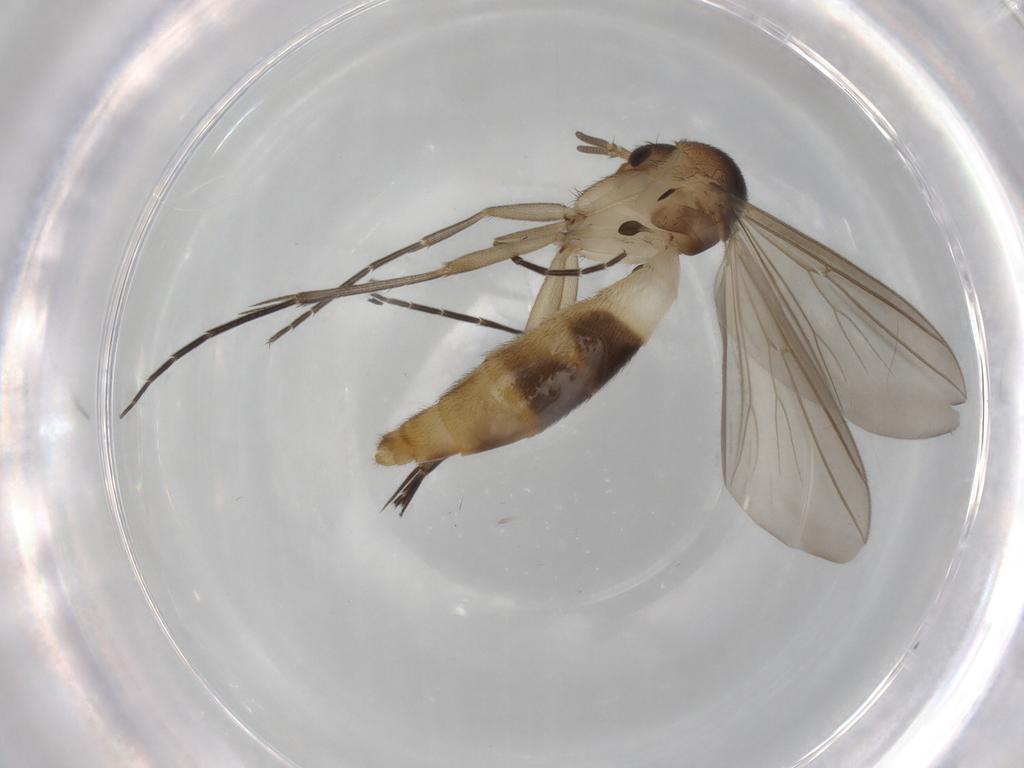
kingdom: Animalia
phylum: Arthropoda
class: Insecta
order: Diptera
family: Mycetophilidae
